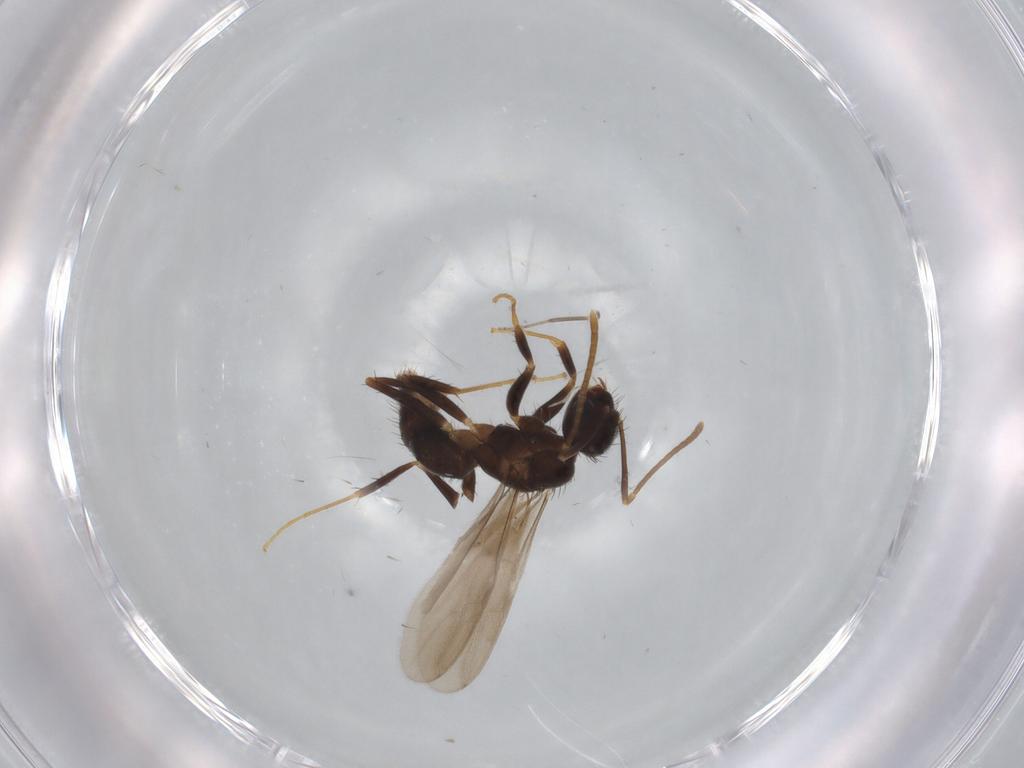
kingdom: Animalia
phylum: Arthropoda
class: Insecta
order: Hymenoptera
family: Formicidae
